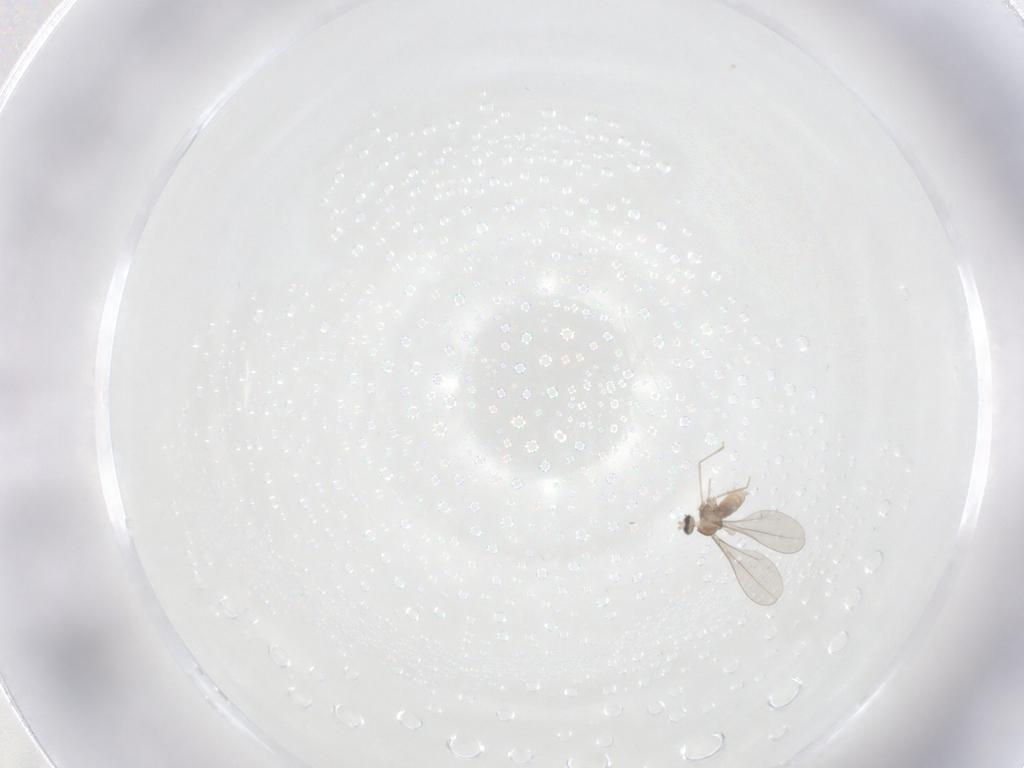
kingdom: Animalia
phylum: Arthropoda
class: Insecta
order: Diptera
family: Cecidomyiidae
